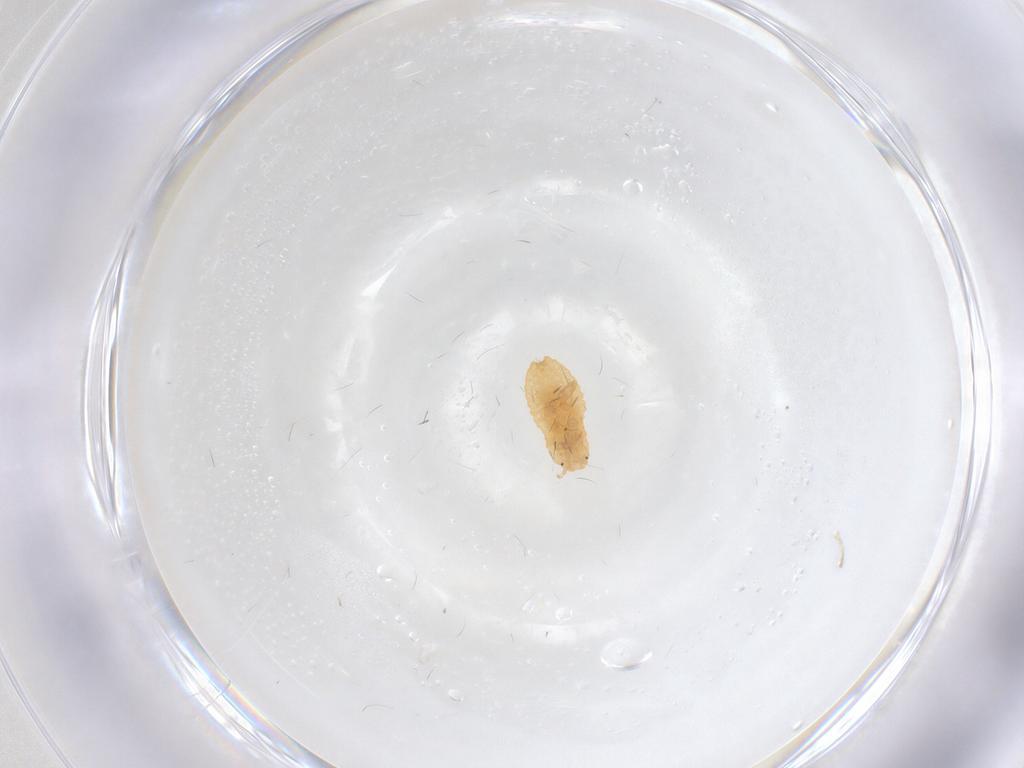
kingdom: Animalia
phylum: Arthropoda
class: Insecta
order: Hemiptera
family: Pseudococcidae
